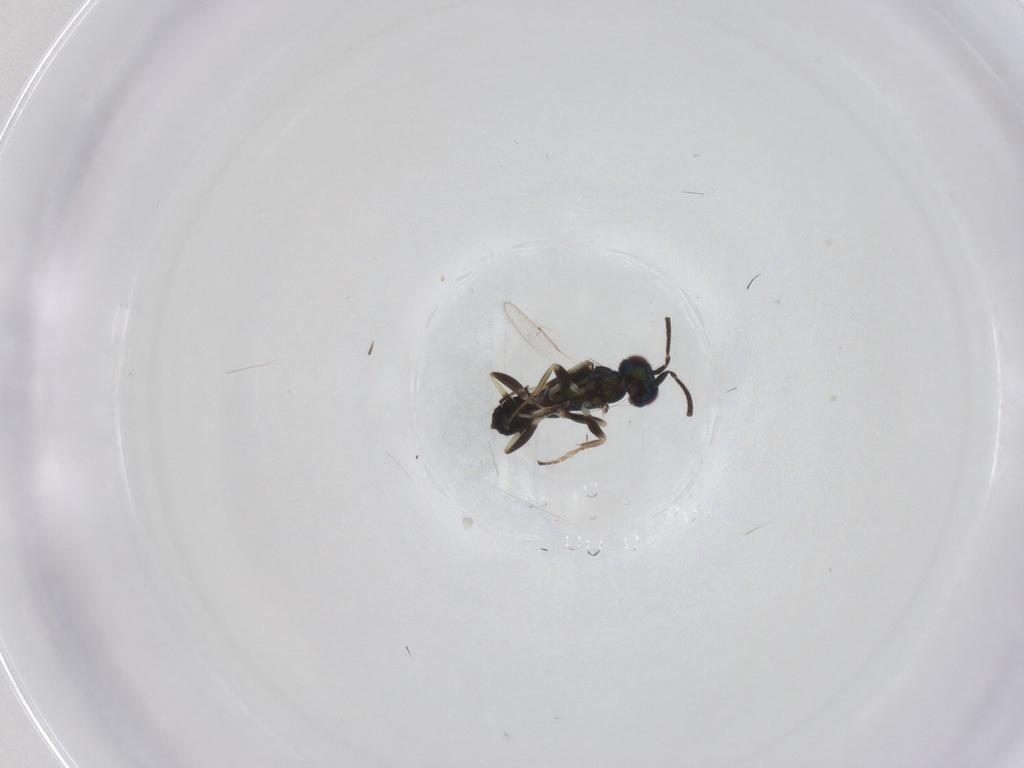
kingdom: Animalia
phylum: Arthropoda
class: Insecta
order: Hymenoptera
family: Eupelmidae
